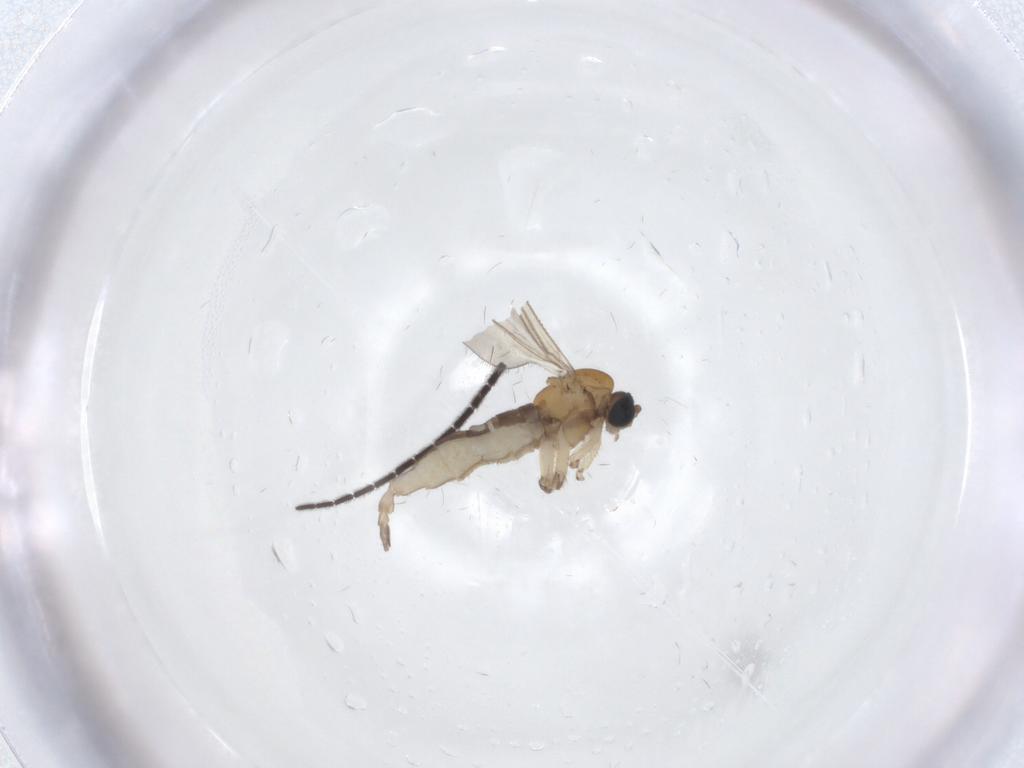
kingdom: Animalia
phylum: Arthropoda
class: Insecta
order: Diptera
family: Sciaridae
